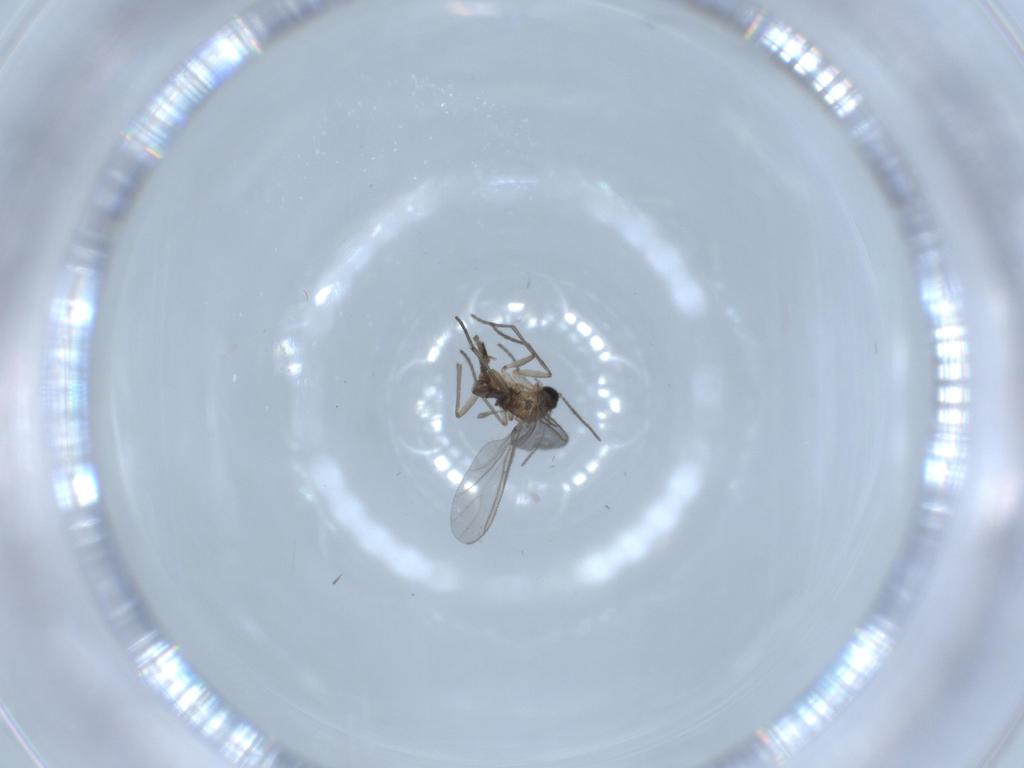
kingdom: Animalia
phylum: Arthropoda
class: Insecta
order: Diptera
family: Sciaridae
